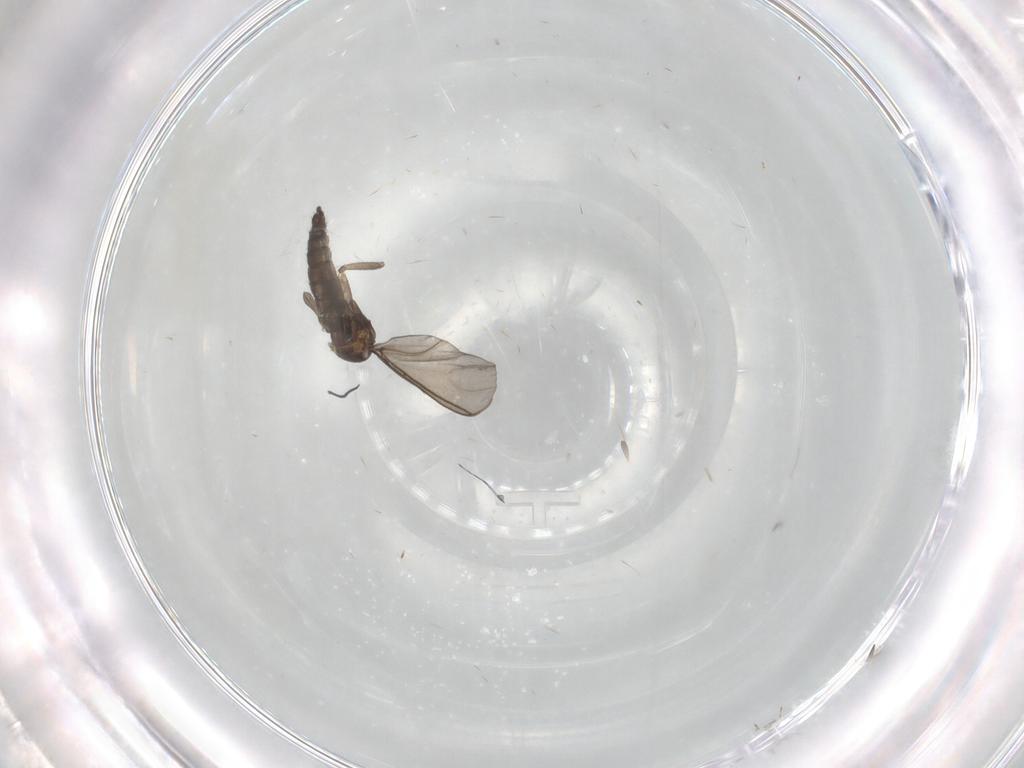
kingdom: Animalia
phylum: Arthropoda
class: Insecta
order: Diptera
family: Sciaridae
